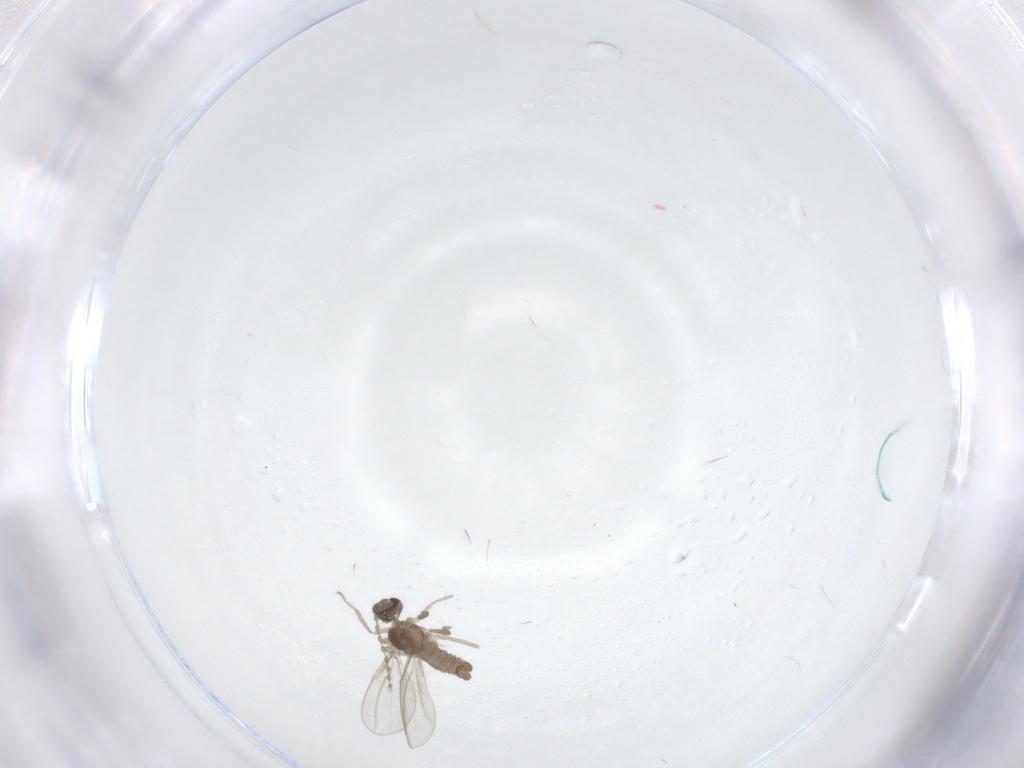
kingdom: Animalia
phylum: Arthropoda
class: Insecta
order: Diptera
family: Cecidomyiidae
